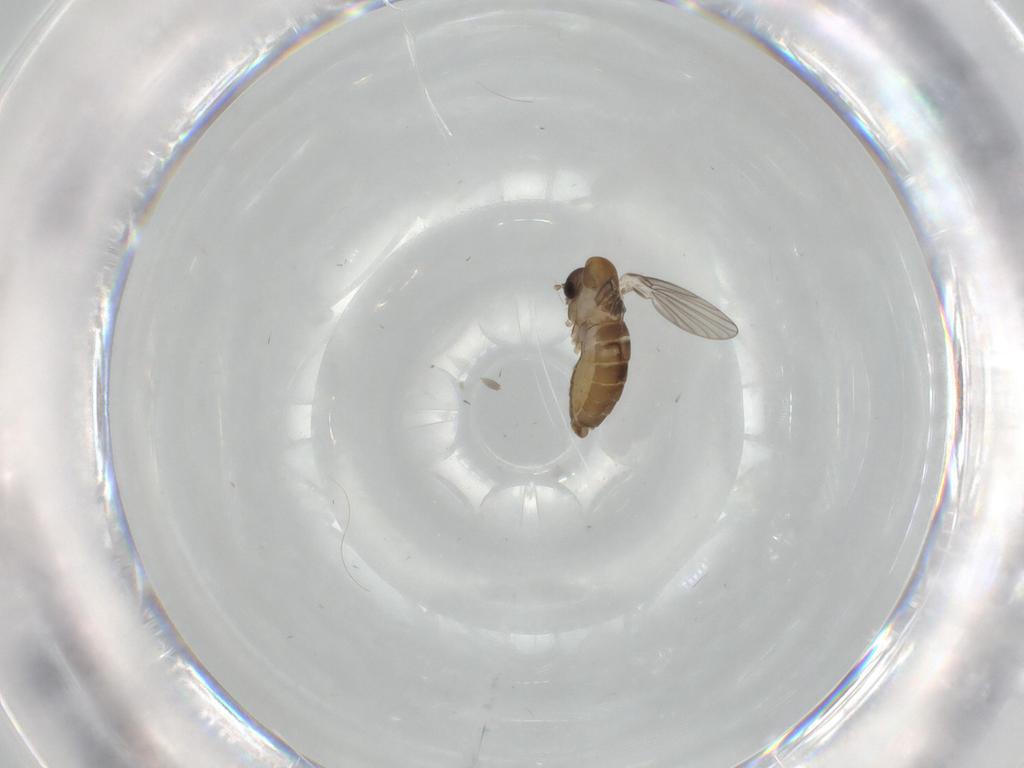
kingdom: Animalia
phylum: Arthropoda
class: Insecta
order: Diptera
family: Psychodidae
